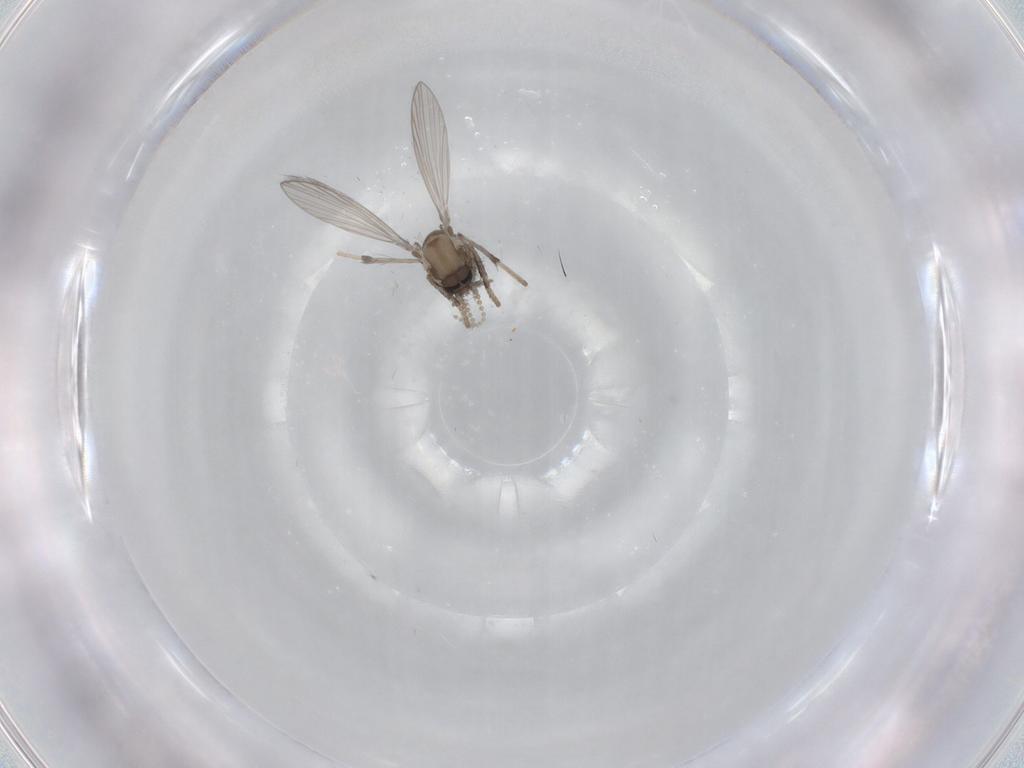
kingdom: Animalia
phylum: Arthropoda
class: Insecta
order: Diptera
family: Psychodidae
